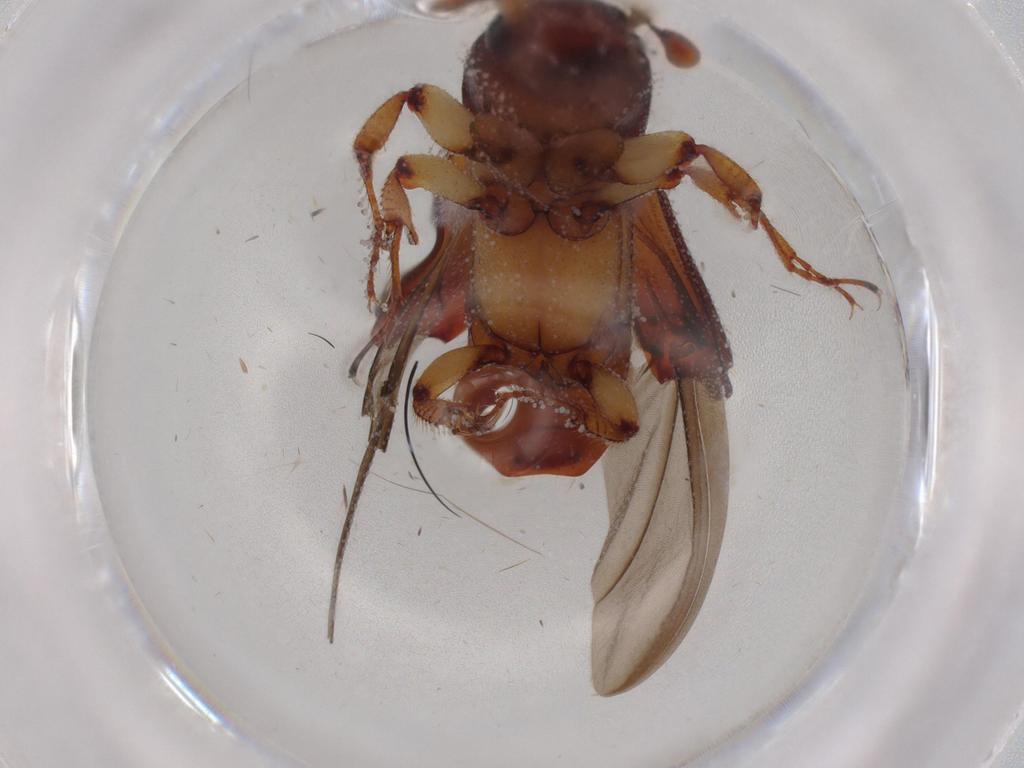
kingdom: Animalia
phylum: Arthropoda
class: Insecta
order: Coleoptera
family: Curculionidae
